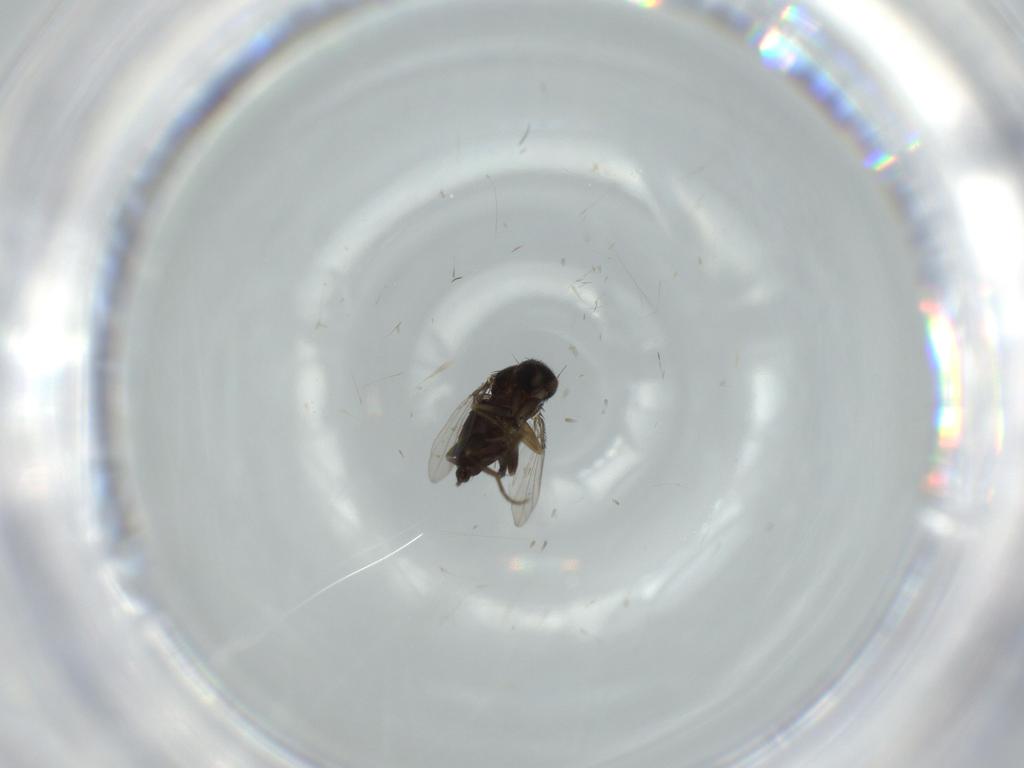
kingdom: Animalia
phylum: Arthropoda
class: Insecta
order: Diptera
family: Phoridae
